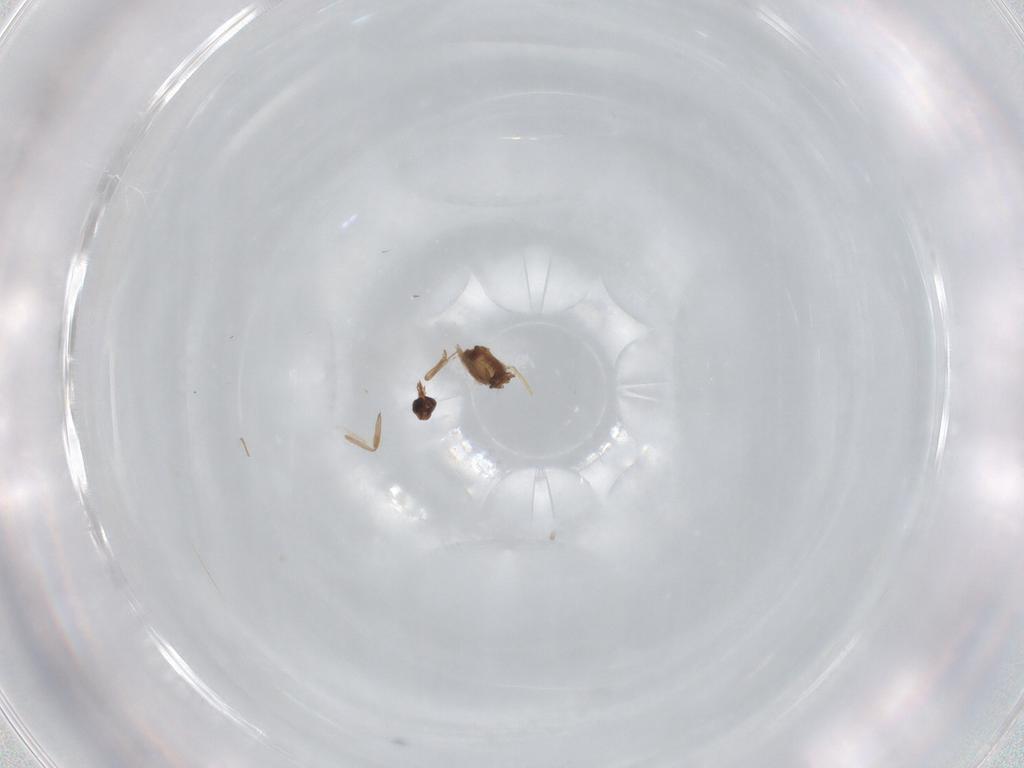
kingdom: Animalia
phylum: Arthropoda
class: Insecta
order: Diptera
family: Ceratopogonidae
